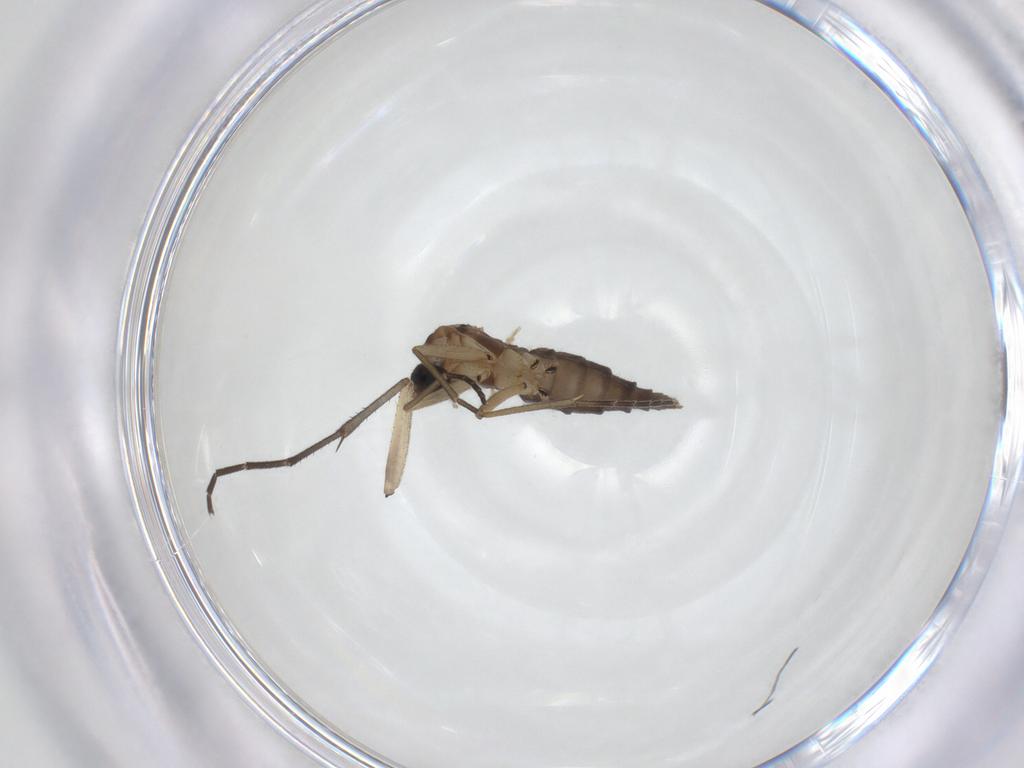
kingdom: Animalia
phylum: Arthropoda
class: Insecta
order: Diptera
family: Sciaridae
